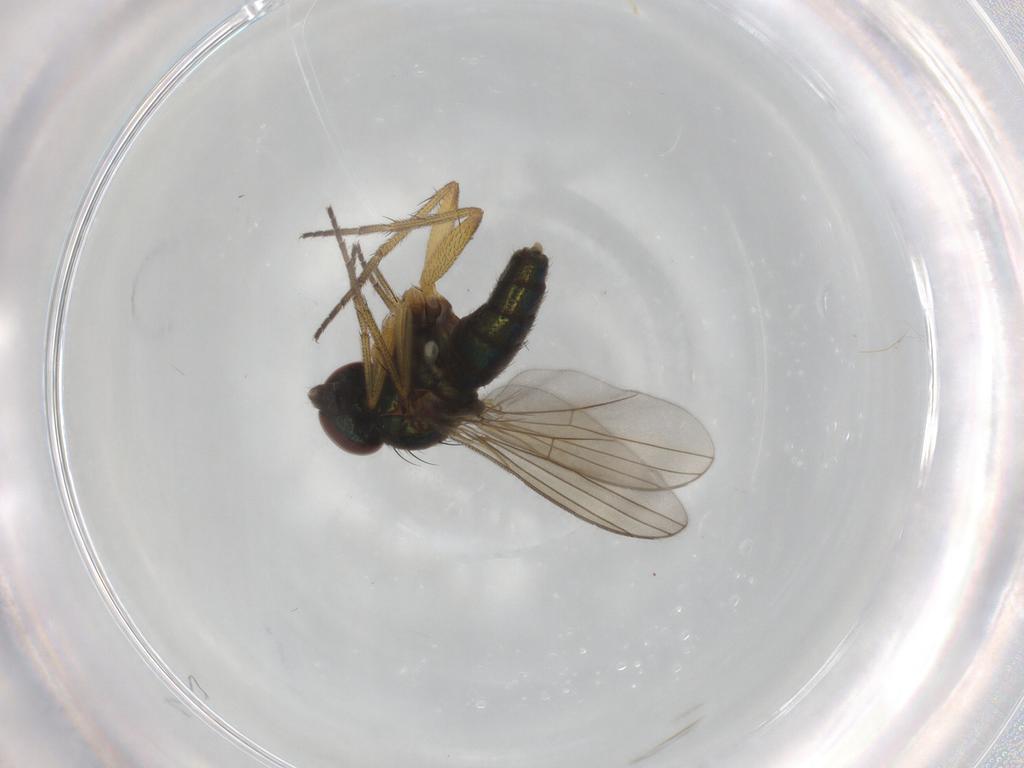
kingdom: Animalia
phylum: Arthropoda
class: Insecta
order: Diptera
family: Dolichopodidae
